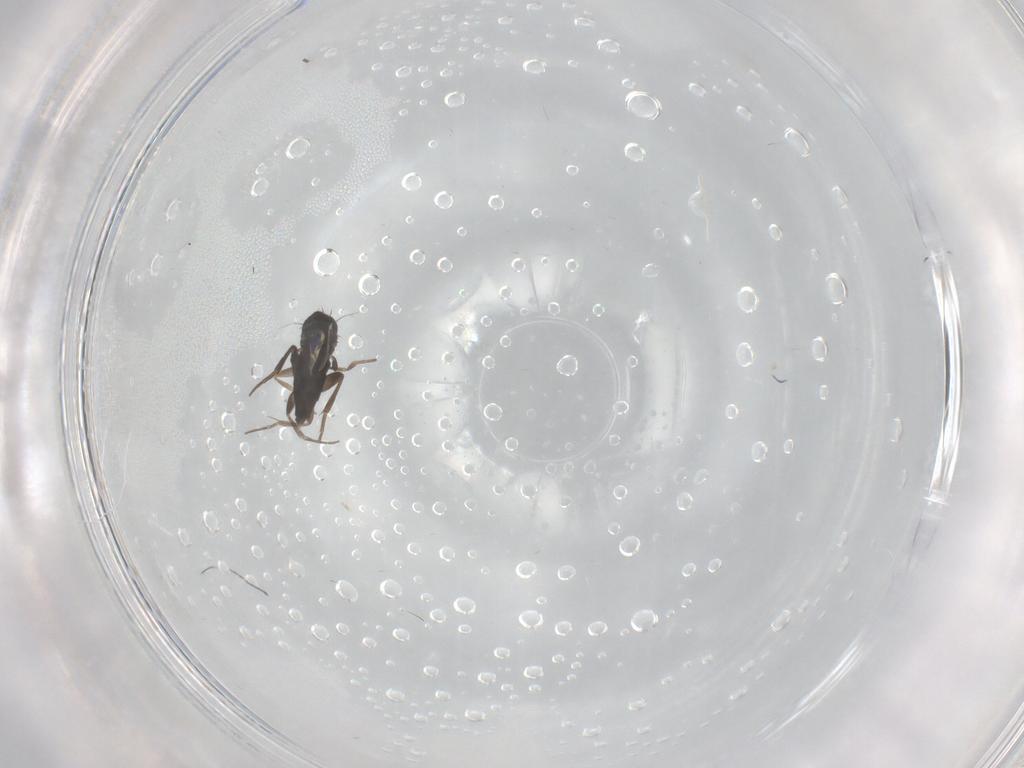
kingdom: Animalia
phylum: Arthropoda
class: Insecta
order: Diptera
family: Phoridae
